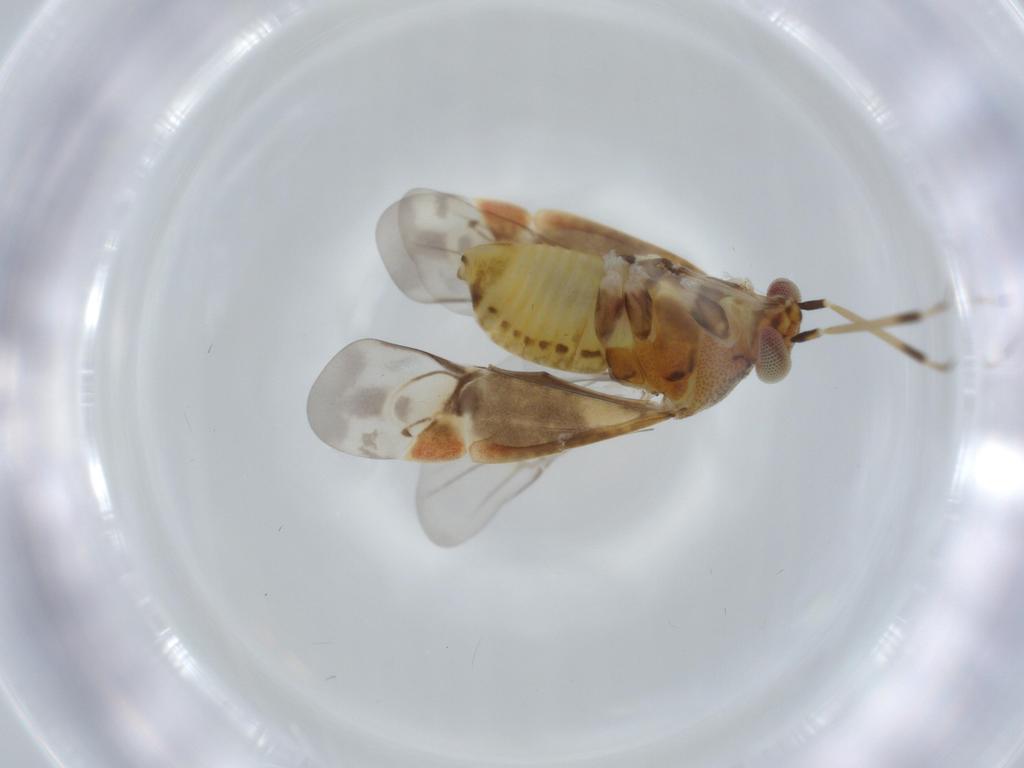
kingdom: Animalia
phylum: Arthropoda
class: Insecta
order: Hemiptera
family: Miridae
